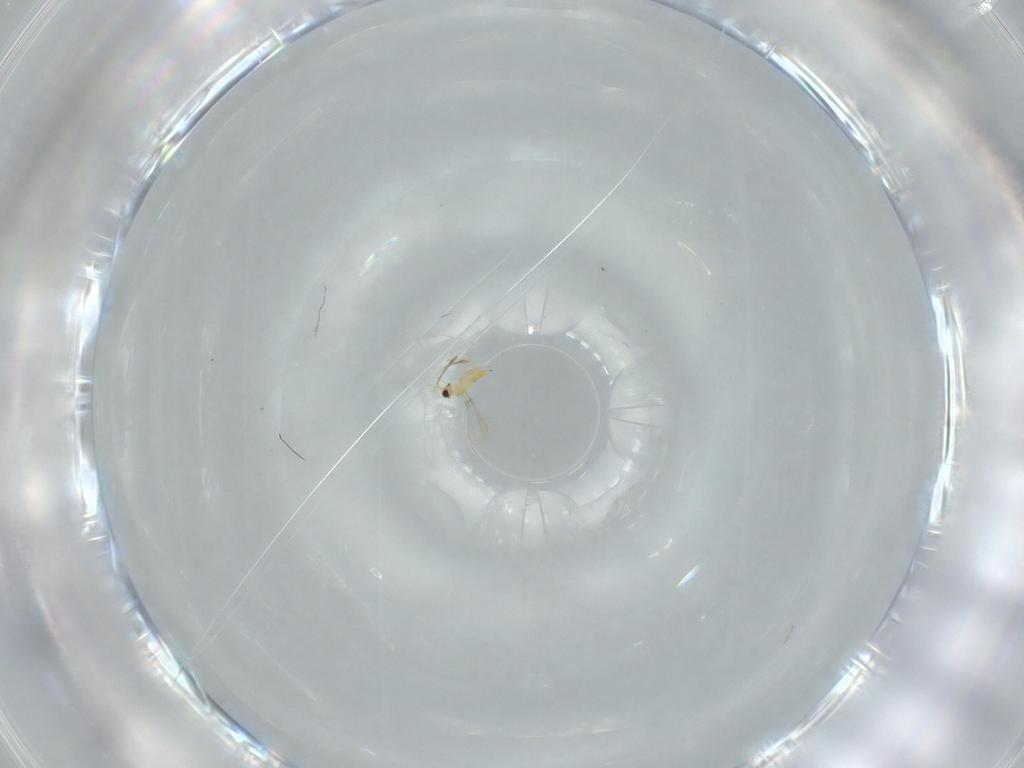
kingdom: Animalia
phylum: Arthropoda
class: Insecta
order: Hymenoptera
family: Mymaridae
